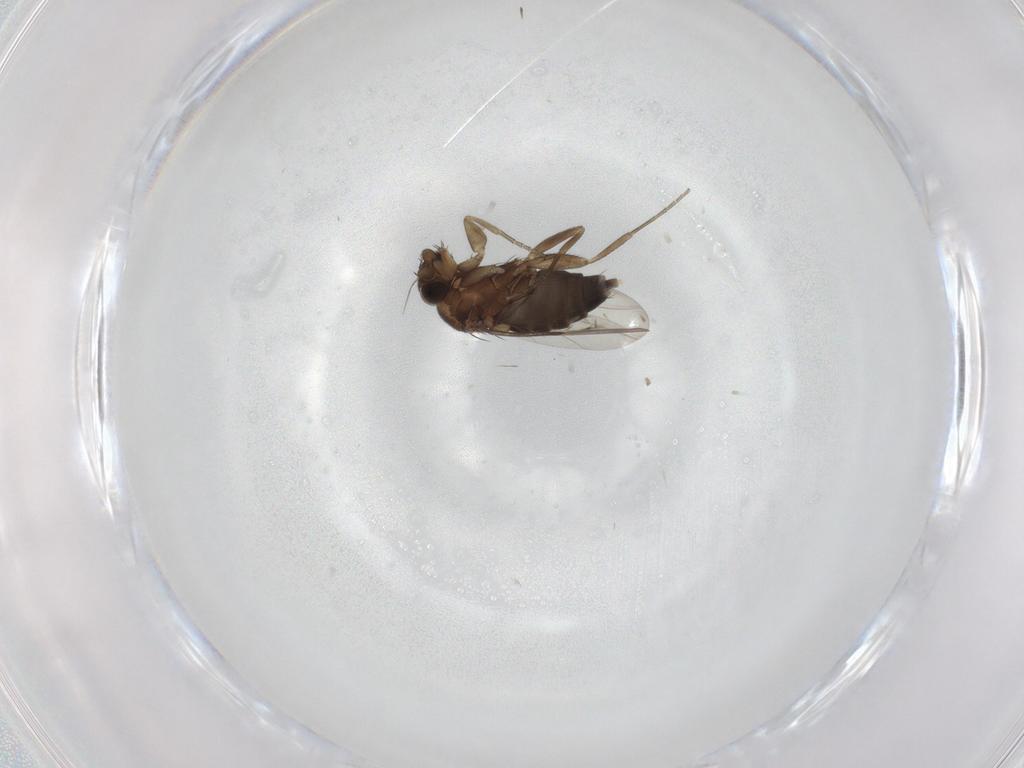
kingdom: Animalia
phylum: Arthropoda
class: Insecta
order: Diptera
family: Phoridae
